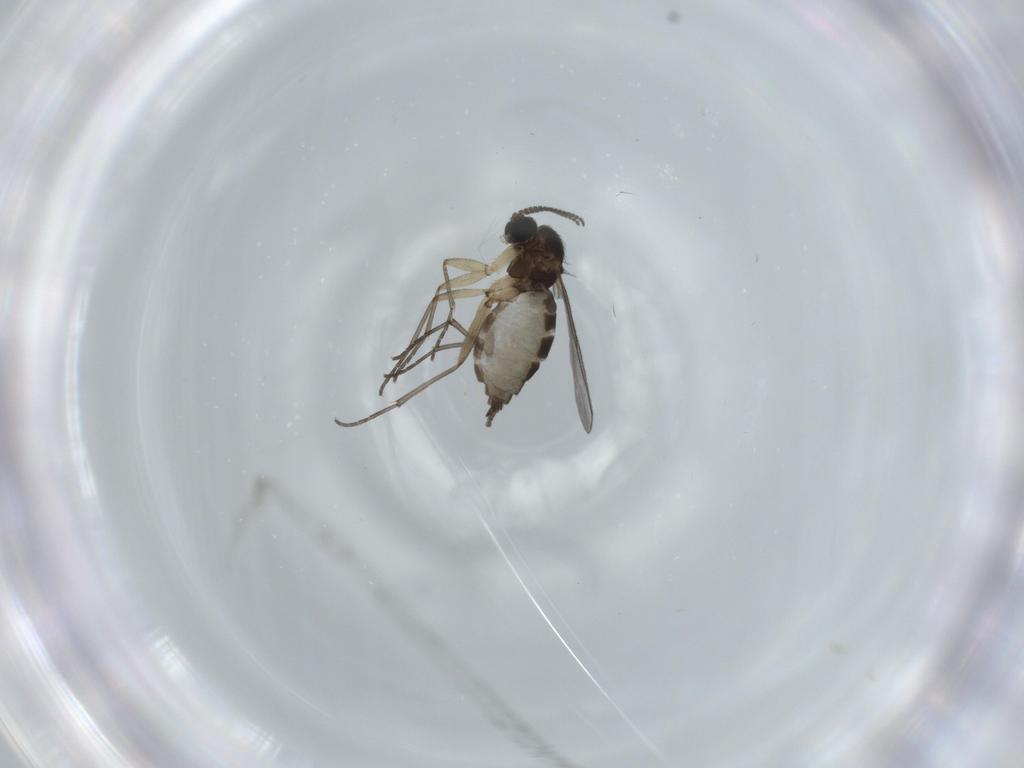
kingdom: Animalia
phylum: Arthropoda
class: Insecta
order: Diptera
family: Sciaridae
